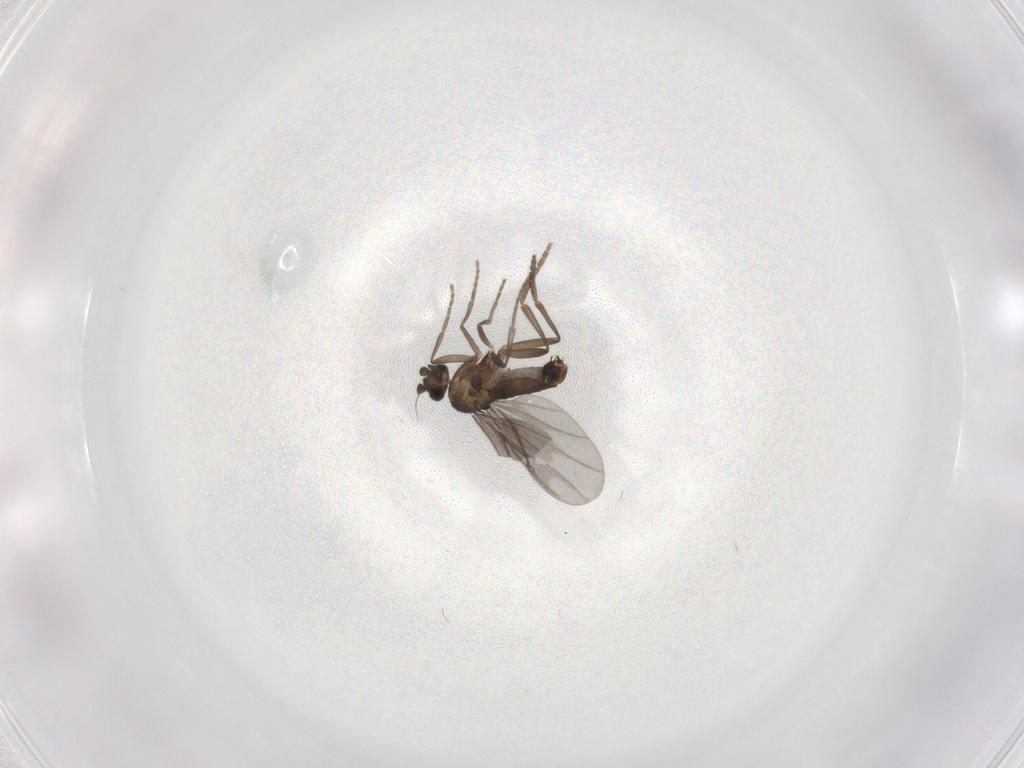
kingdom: Animalia
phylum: Arthropoda
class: Insecta
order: Diptera
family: Phoridae
